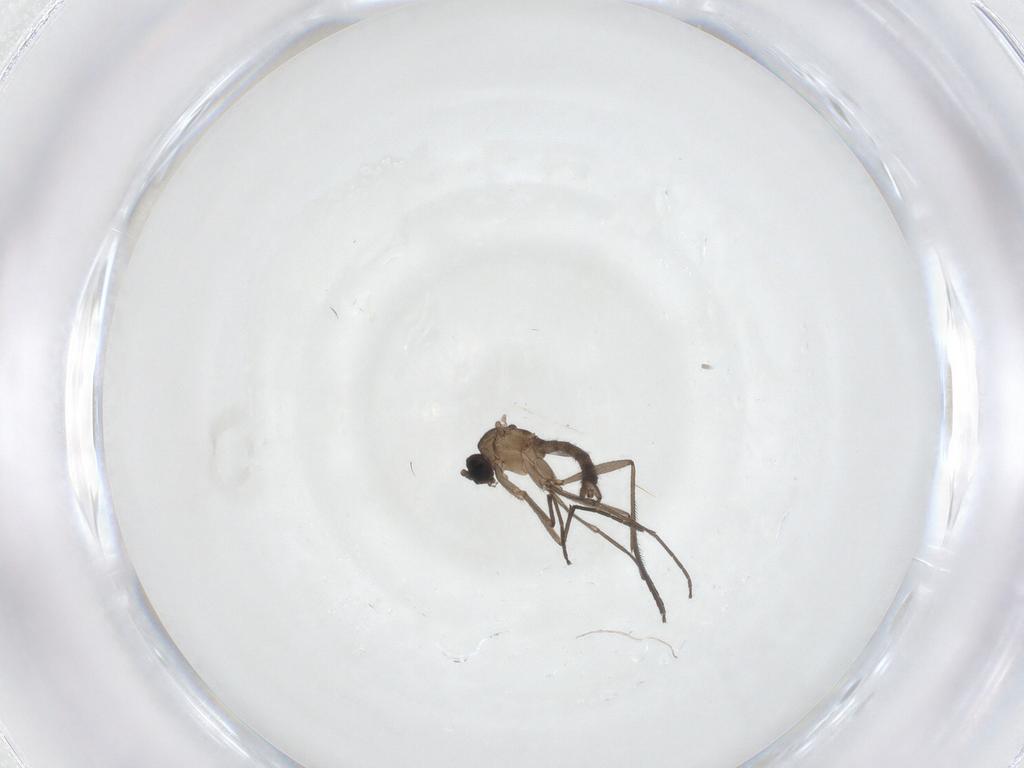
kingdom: Animalia
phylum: Arthropoda
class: Insecta
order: Diptera
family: Sciaridae
